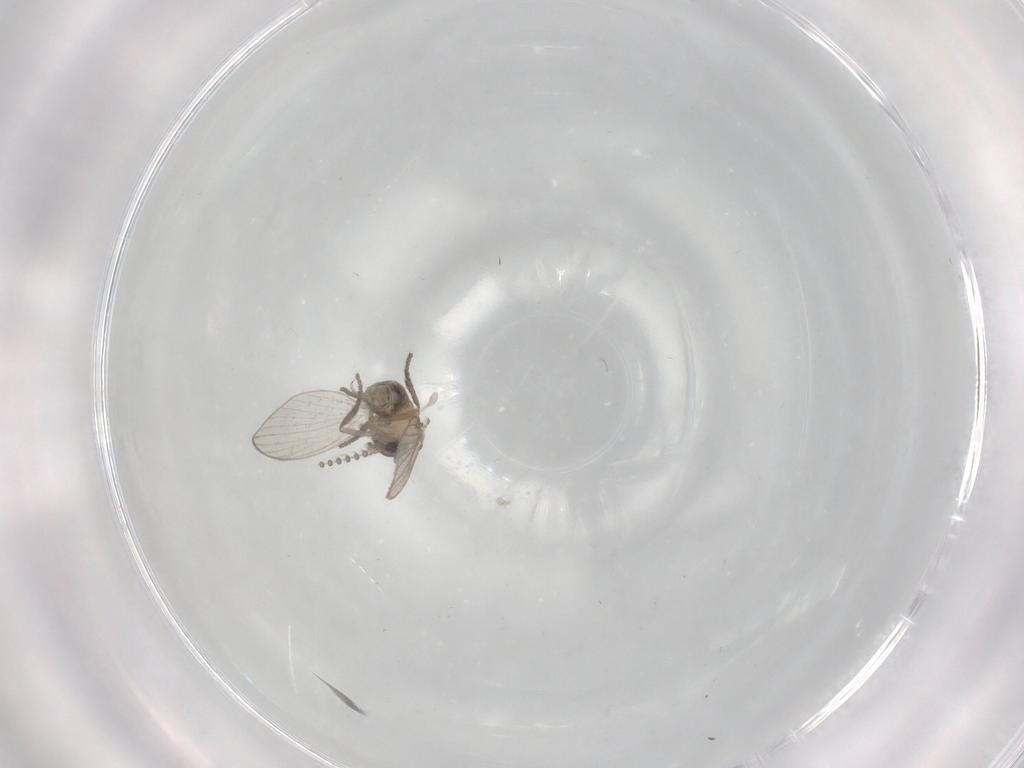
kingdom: Animalia
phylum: Arthropoda
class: Insecta
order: Diptera
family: Psychodidae
